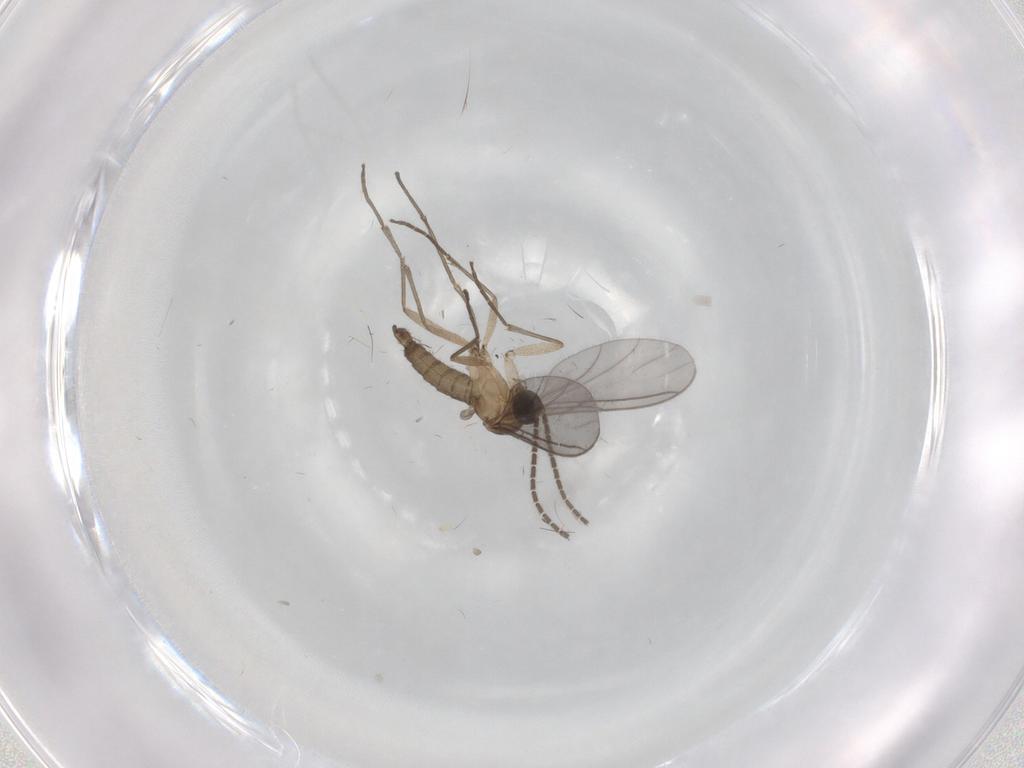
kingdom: Animalia
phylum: Arthropoda
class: Insecta
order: Diptera
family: Sciaridae
